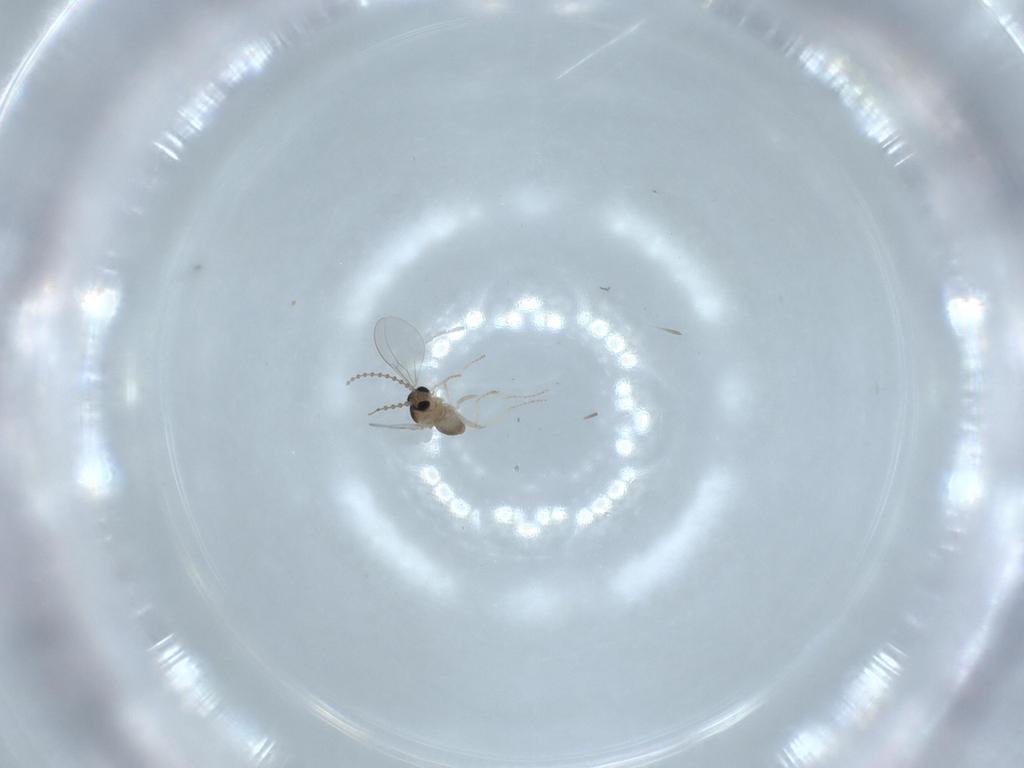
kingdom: Animalia
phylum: Arthropoda
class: Insecta
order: Diptera
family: Cecidomyiidae
